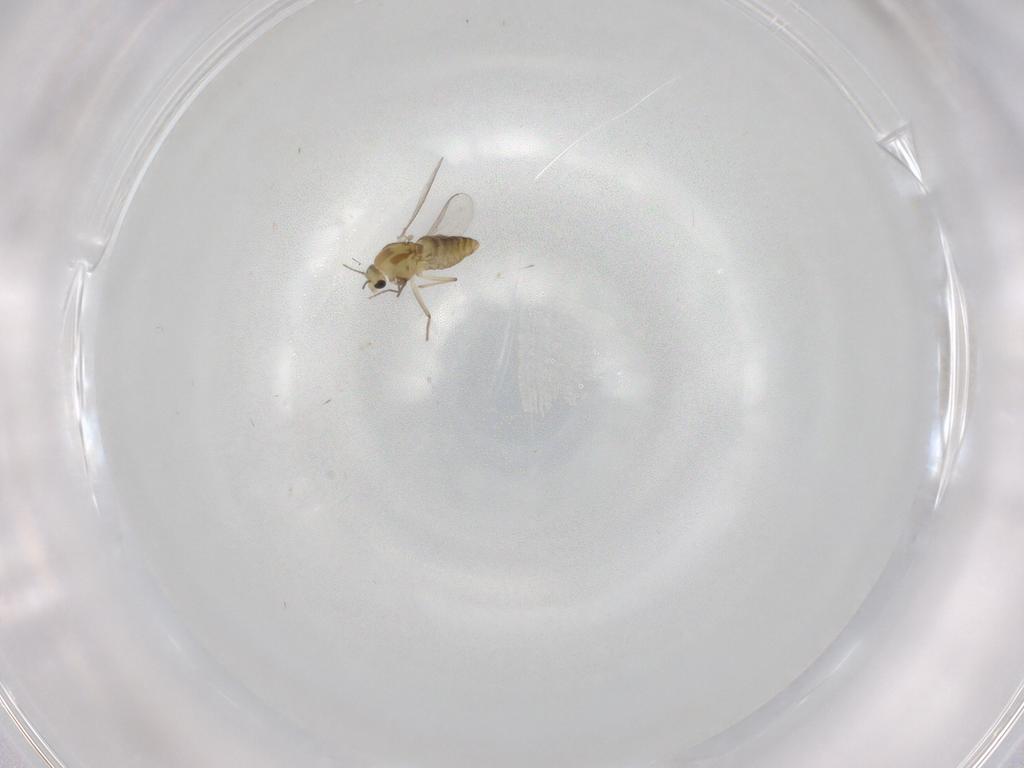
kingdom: Animalia
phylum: Arthropoda
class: Insecta
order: Diptera
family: Chironomidae
